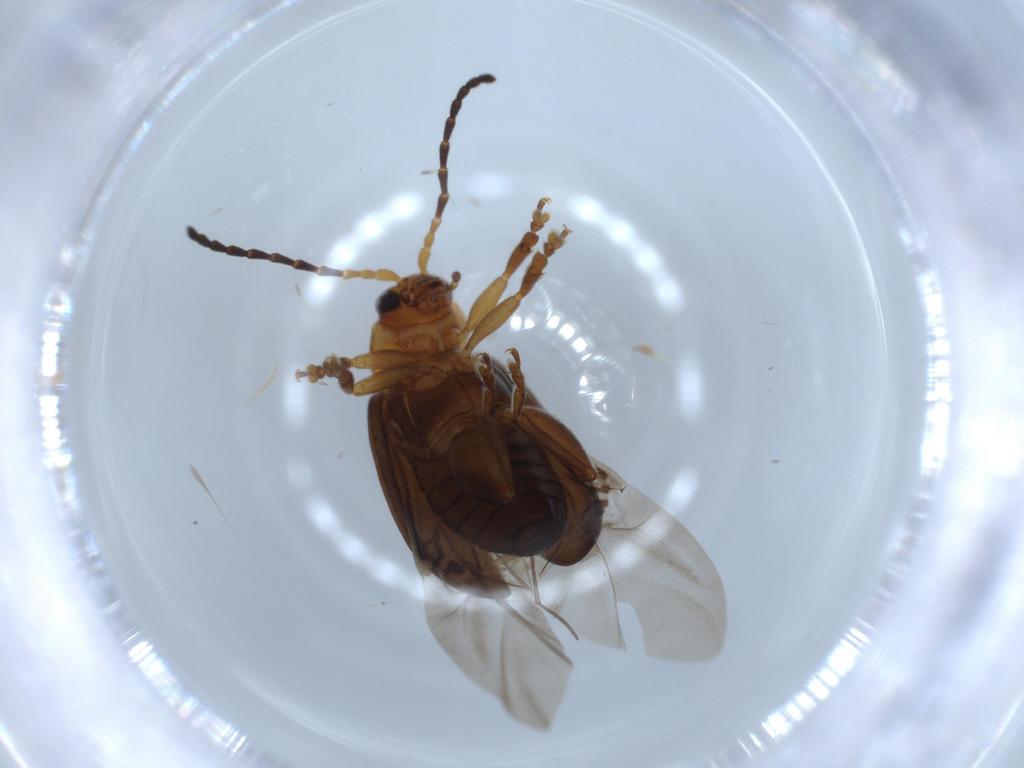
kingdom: Animalia
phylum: Arthropoda
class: Insecta
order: Coleoptera
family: Chrysomelidae
